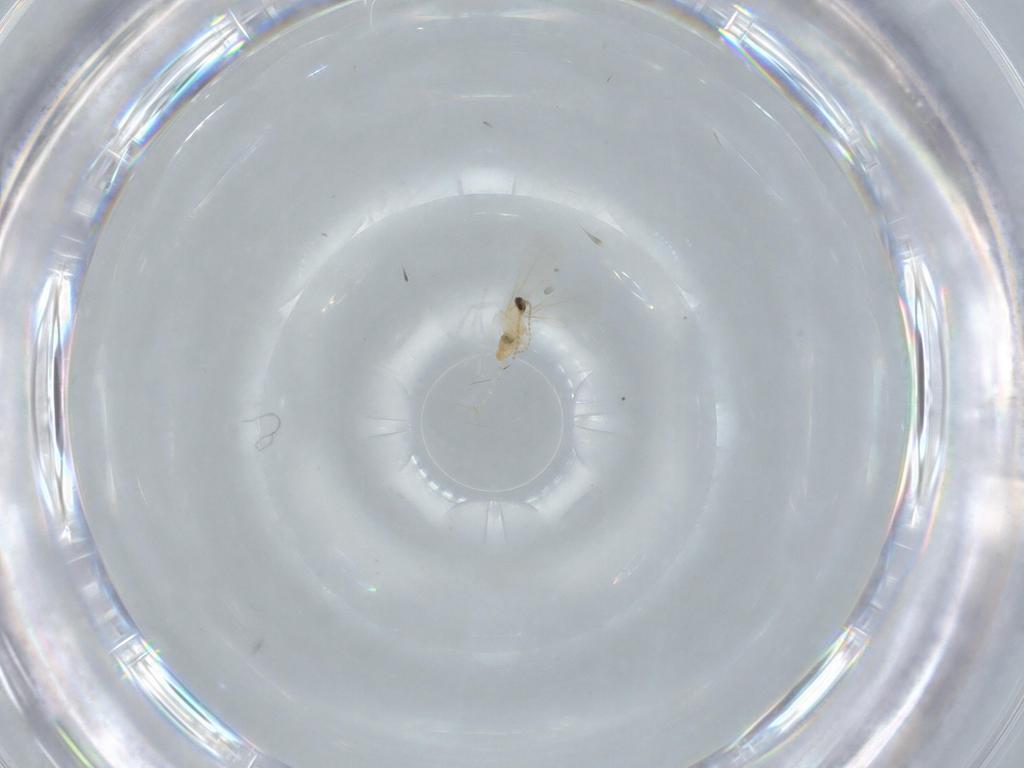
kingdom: Animalia
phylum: Arthropoda
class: Insecta
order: Diptera
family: Cecidomyiidae
